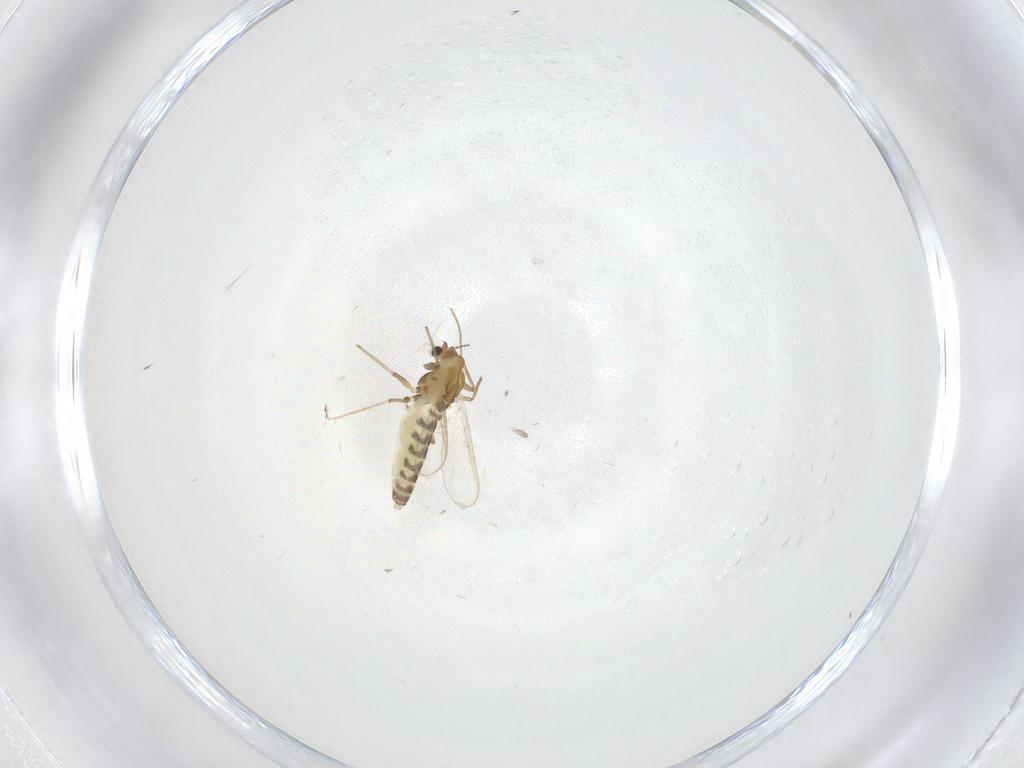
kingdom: Animalia
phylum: Arthropoda
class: Insecta
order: Diptera
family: Chironomidae
